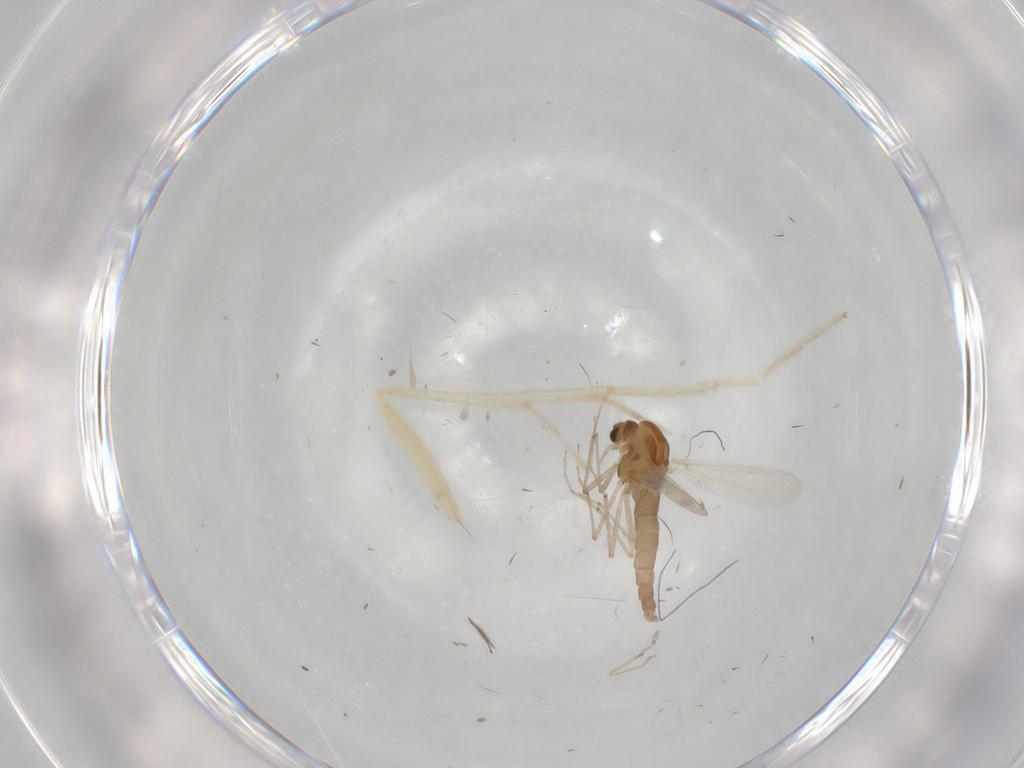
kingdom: Animalia
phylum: Arthropoda
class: Insecta
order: Diptera
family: Chironomidae
